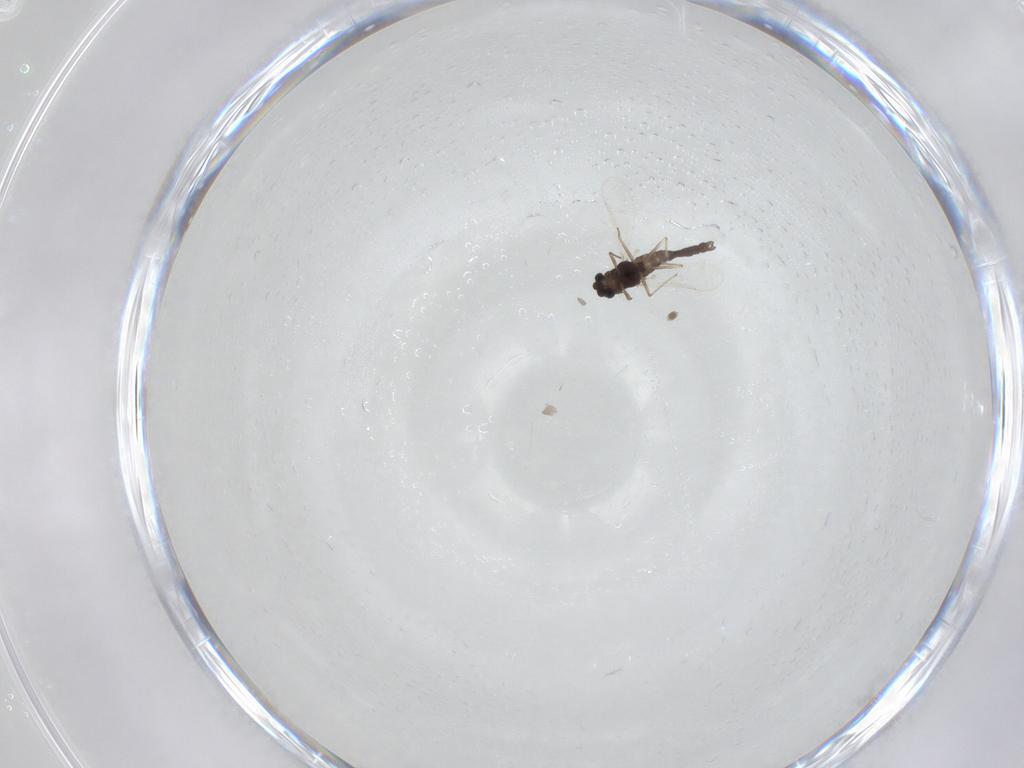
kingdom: Animalia
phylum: Arthropoda
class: Insecta
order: Diptera
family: Chironomidae
